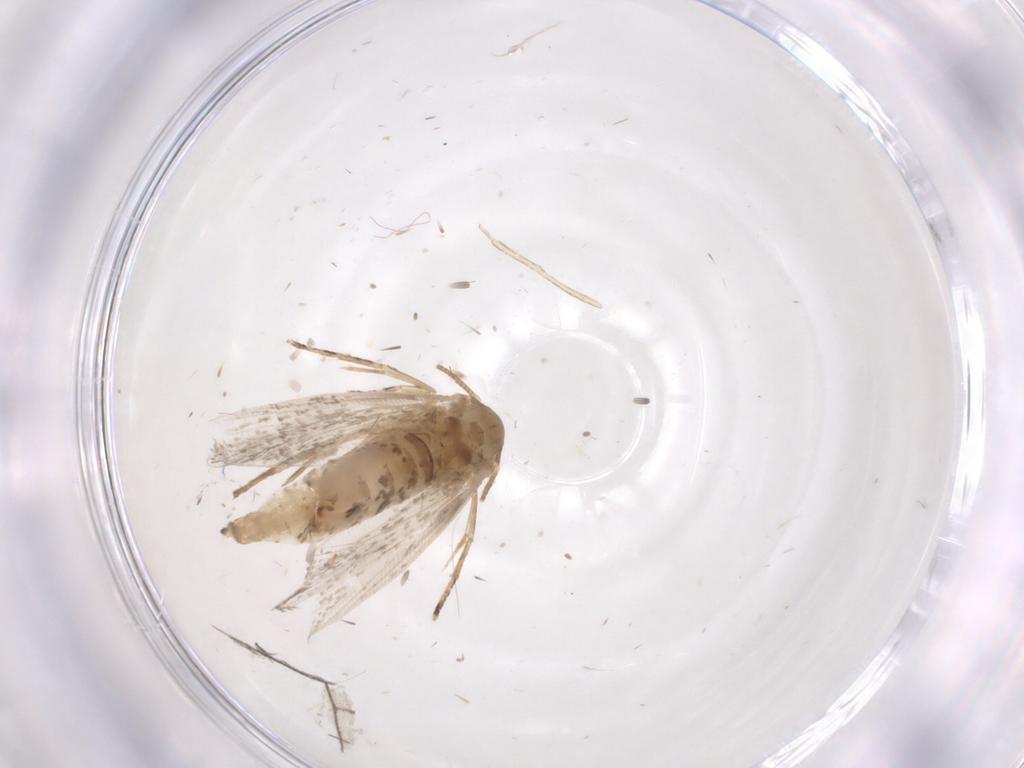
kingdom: Animalia
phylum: Arthropoda
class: Insecta
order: Lepidoptera
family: Crambidae
